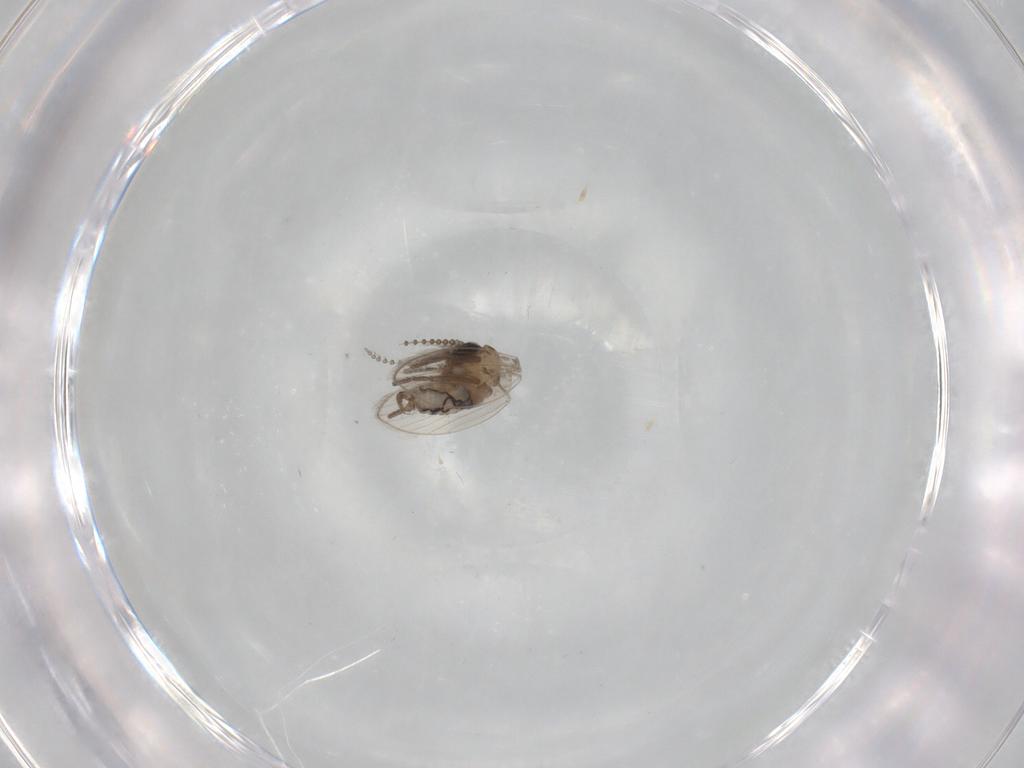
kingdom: Animalia
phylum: Arthropoda
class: Insecta
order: Diptera
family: Psychodidae
